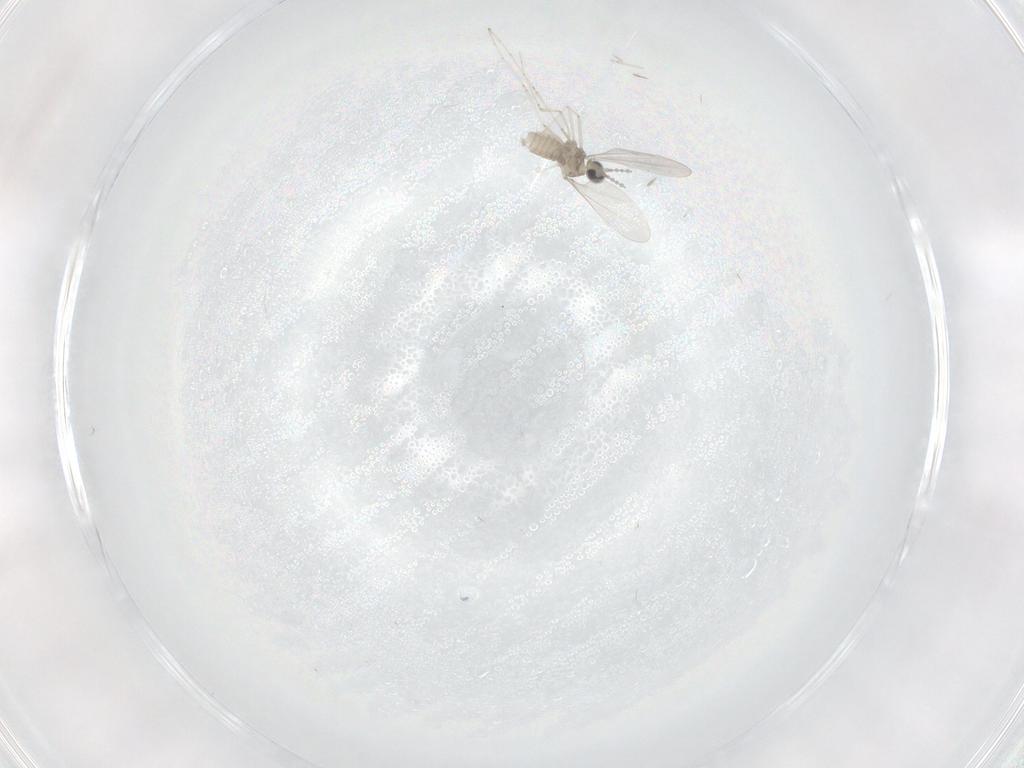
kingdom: Animalia
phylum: Arthropoda
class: Insecta
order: Diptera
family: Cecidomyiidae
